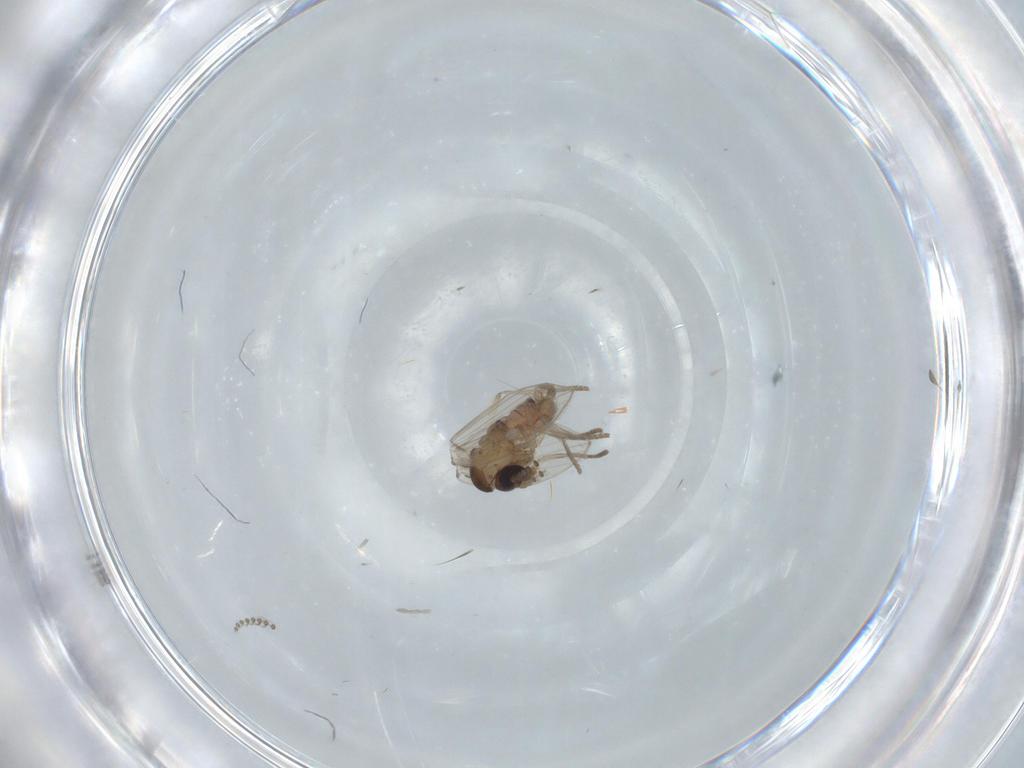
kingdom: Animalia
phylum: Arthropoda
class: Insecta
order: Diptera
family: Psychodidae
